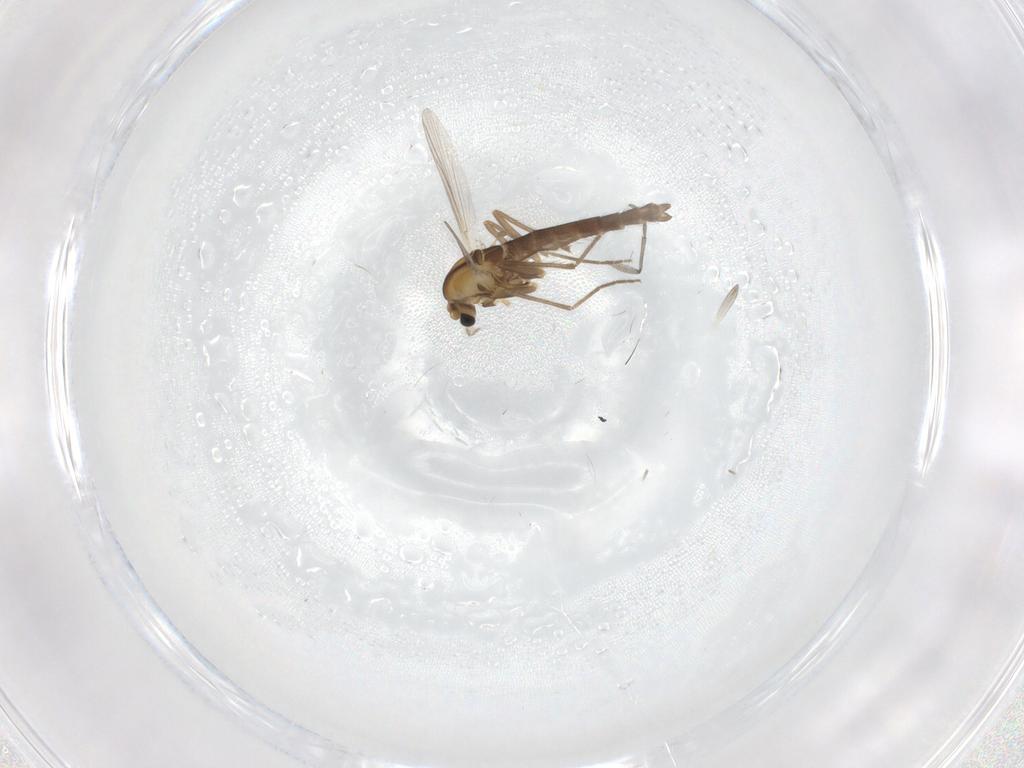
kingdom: Animalia
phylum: Arthropoda
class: Insecta
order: Diptera
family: Chironomidae
